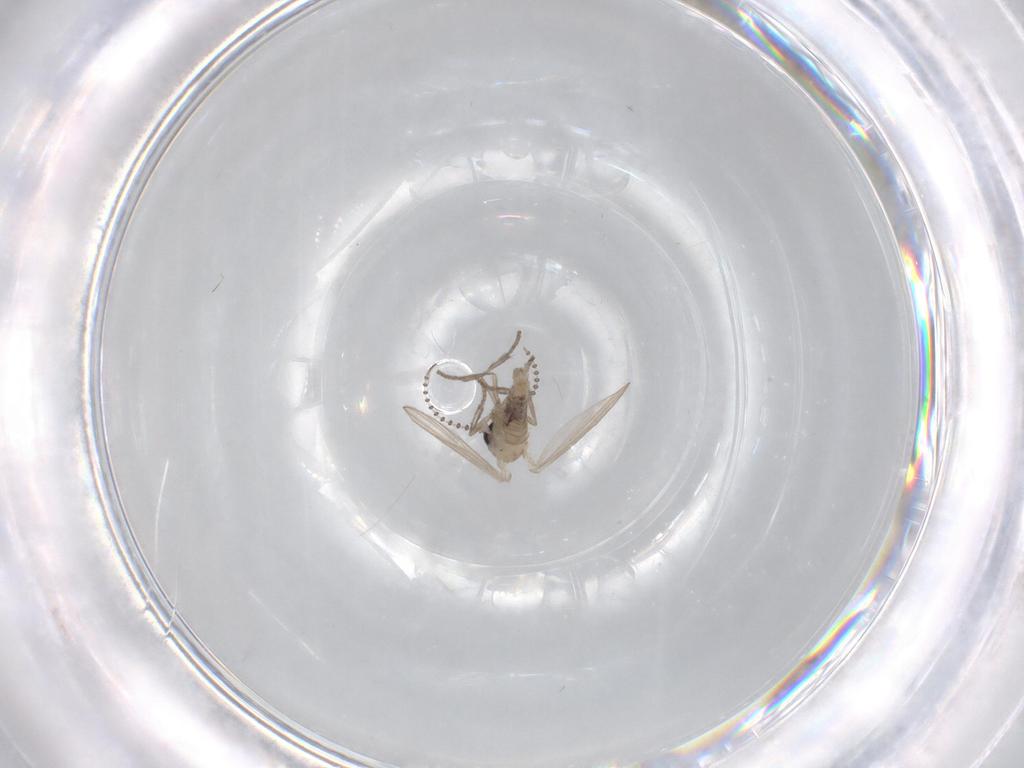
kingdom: Animalia
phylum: Arthropoda
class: Insecta
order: Diptera
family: Psychodidae
